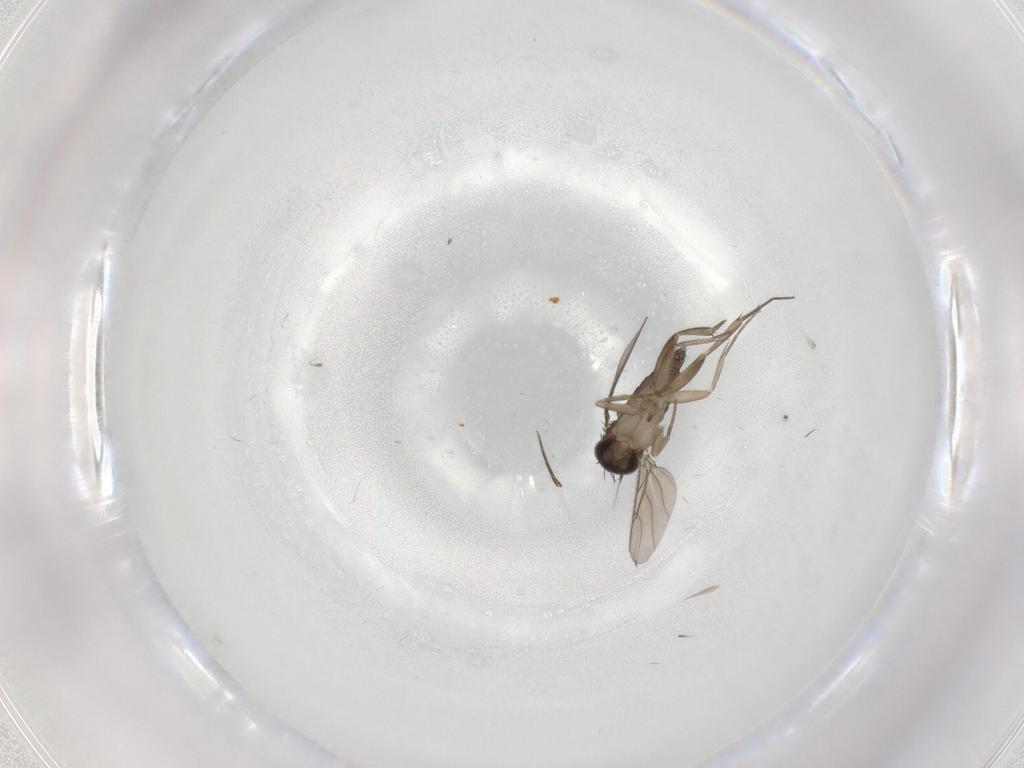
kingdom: Animalia
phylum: Arthropoda
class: Insecta
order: Diptera
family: Phoridae
